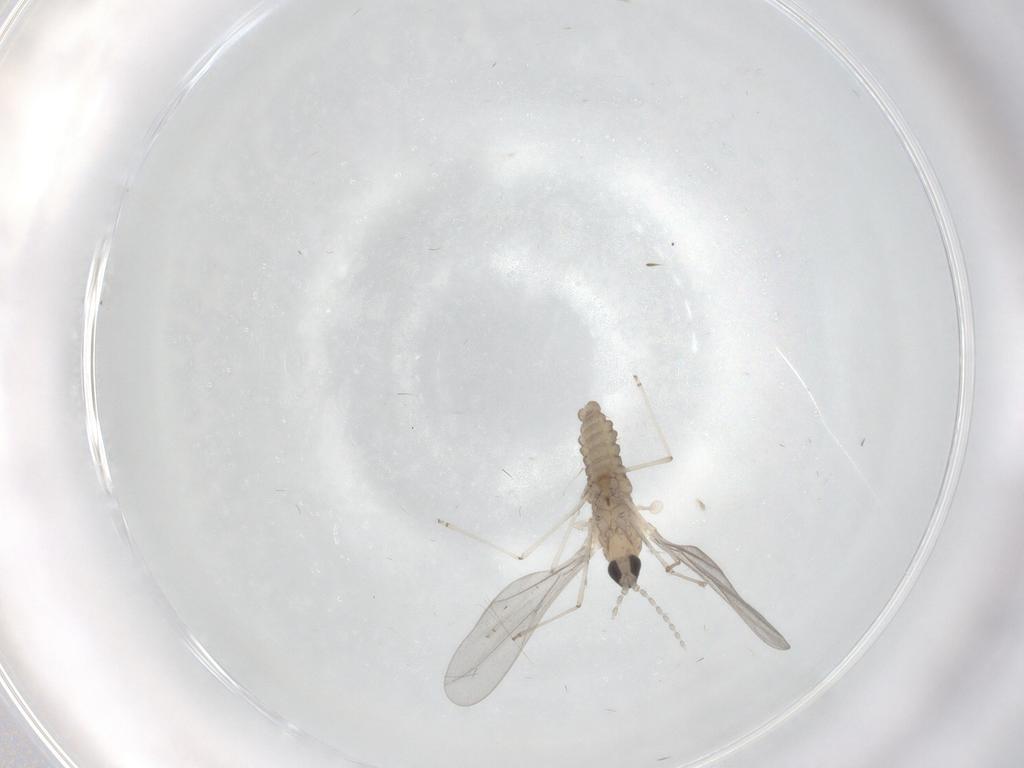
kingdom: Animalia
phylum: Arthropoda
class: Insecta
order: Diptera
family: Cecidomyiidae
